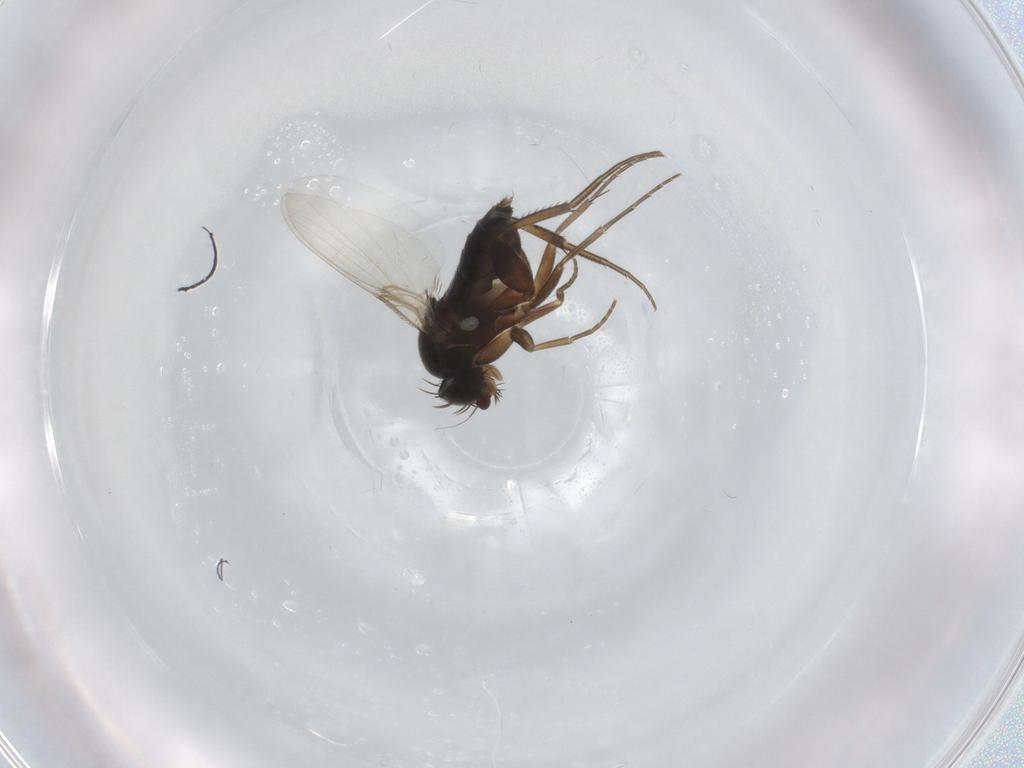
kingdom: Animalia
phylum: Arthropoda
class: Insecta
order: Diptera
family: Phoridae
